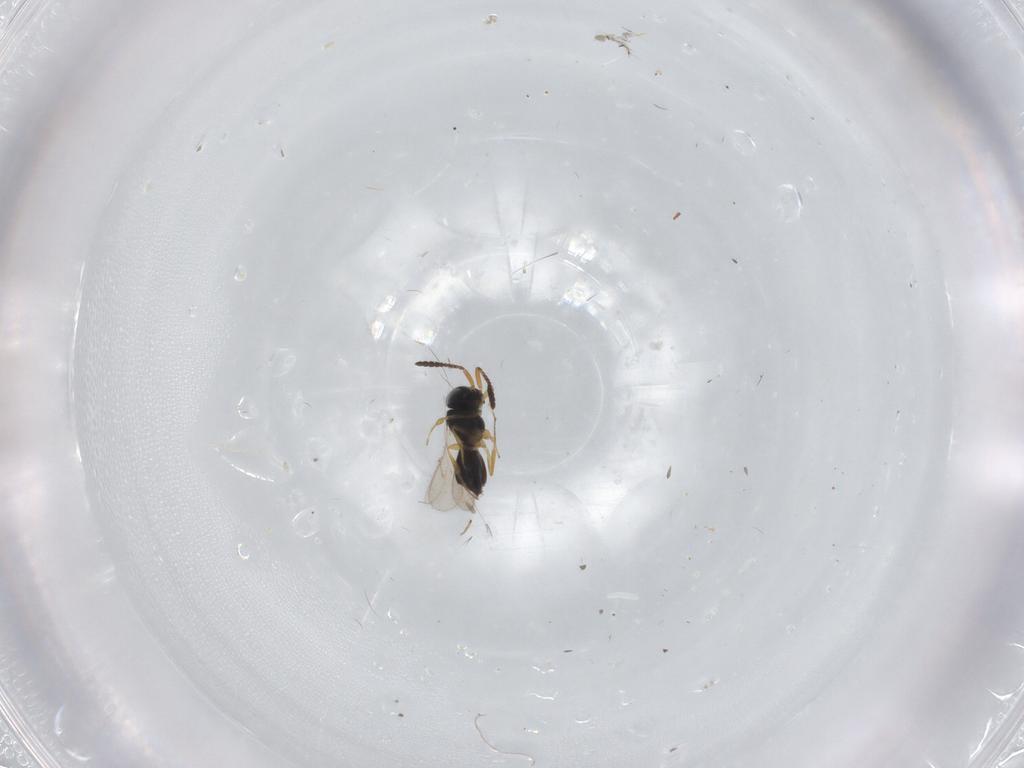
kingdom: Animalia
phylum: Arthropoda
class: Insecta
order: Hymenoptera
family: Scelionidae
